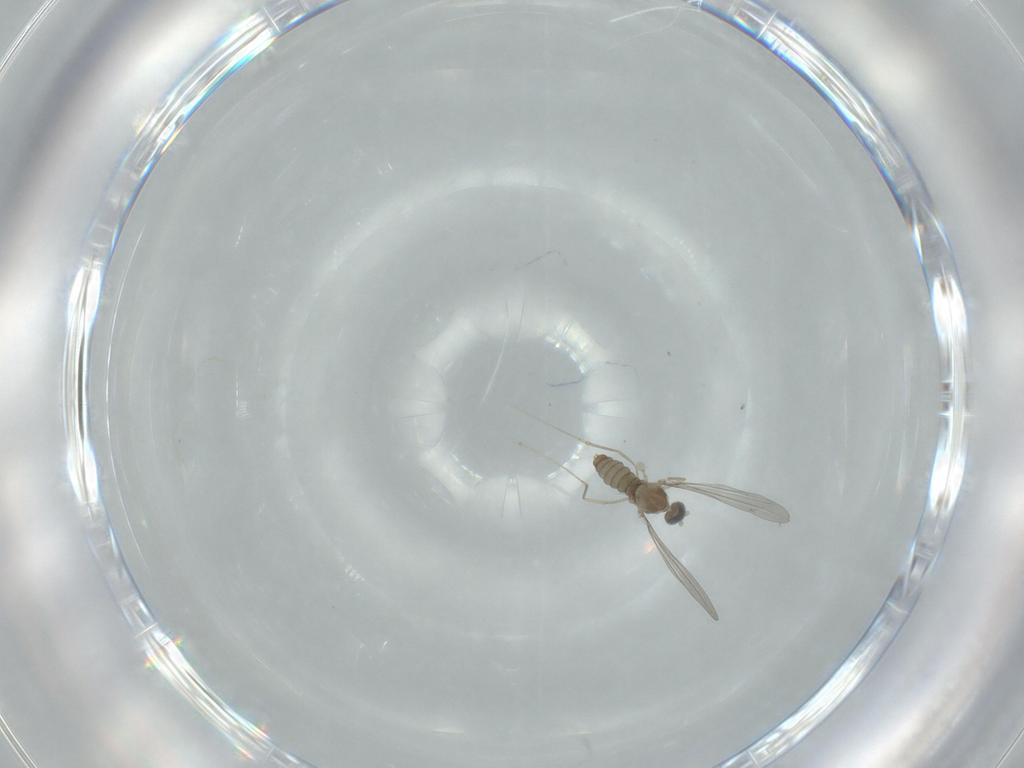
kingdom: Animalia
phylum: Arthropoda
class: Insecta
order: Diptera
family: Cecidomyiidae
